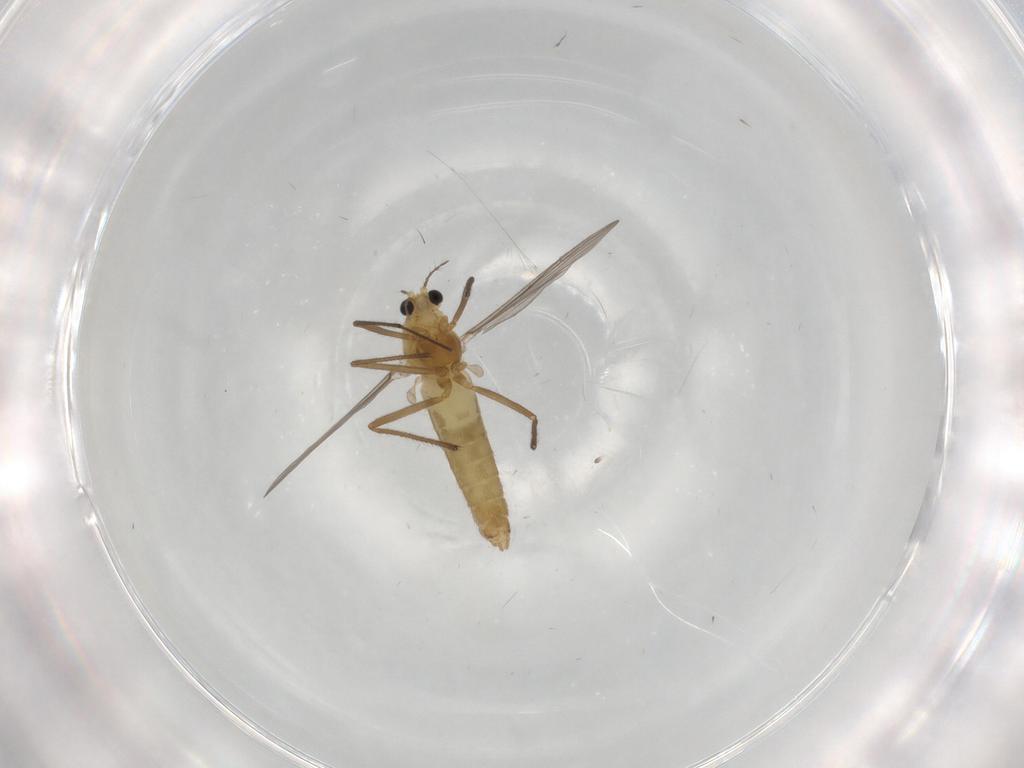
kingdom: Animalia
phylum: Arthropoda
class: Insecta
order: Diptera
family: Chironomidae
